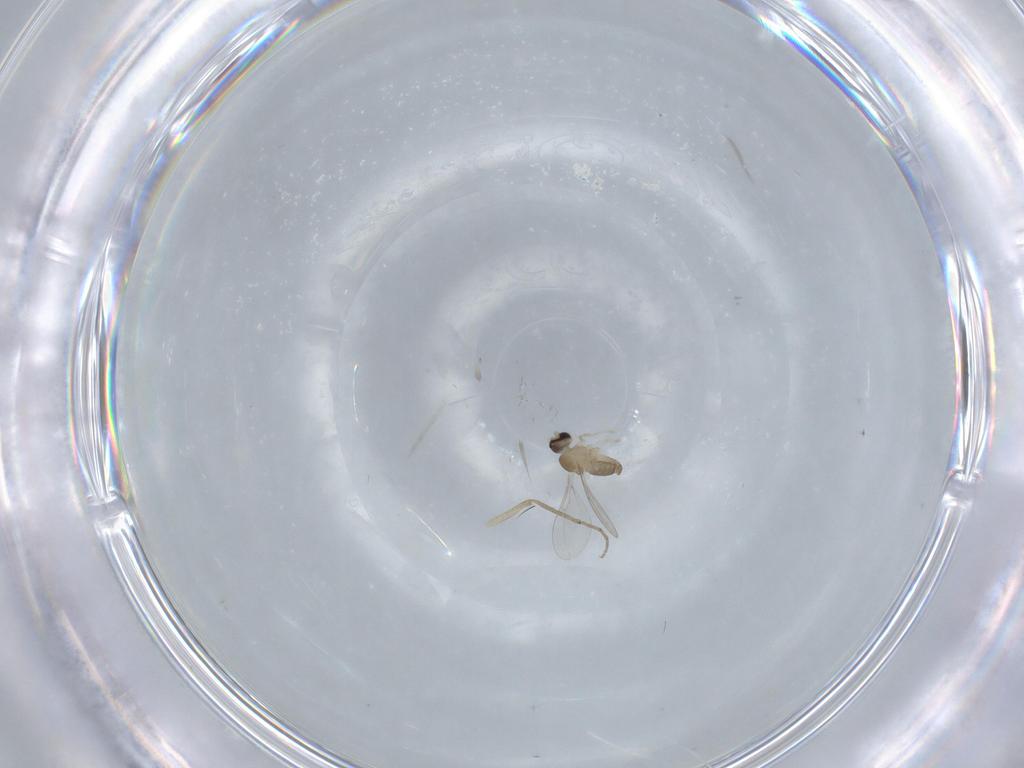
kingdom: Animalia
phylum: Arthropoda
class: Insecta
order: Diptera
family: Cecidomyiidae
